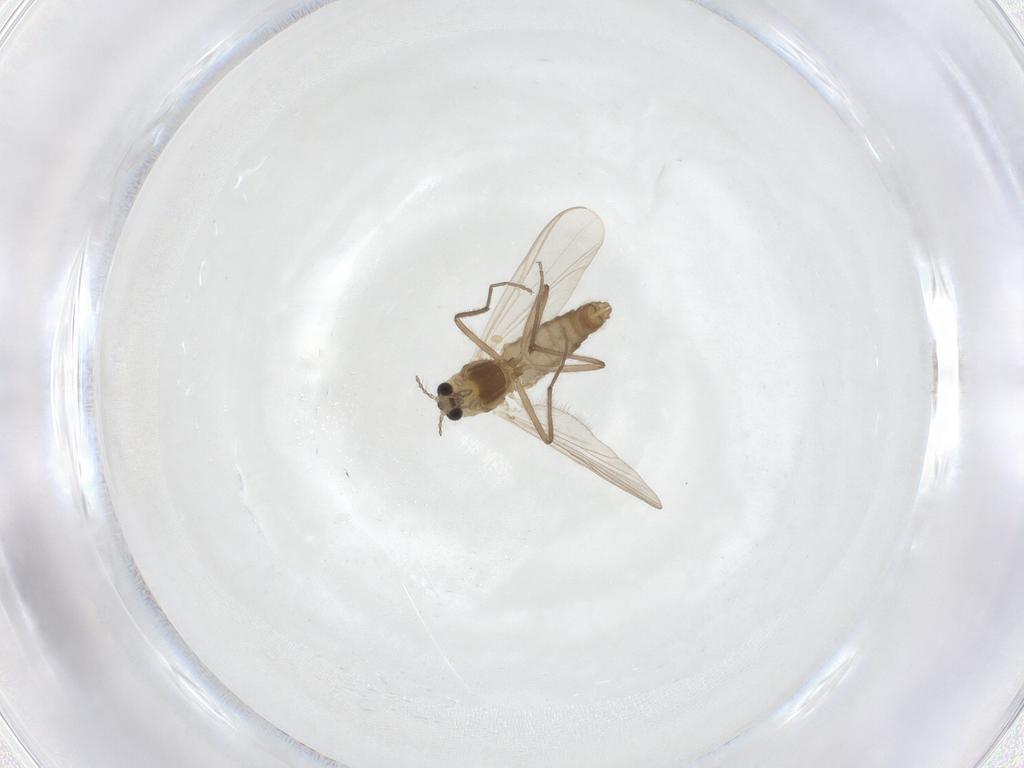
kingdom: Animalia
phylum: Arthropoda
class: Insecta
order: Diptera
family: Chironomidae
